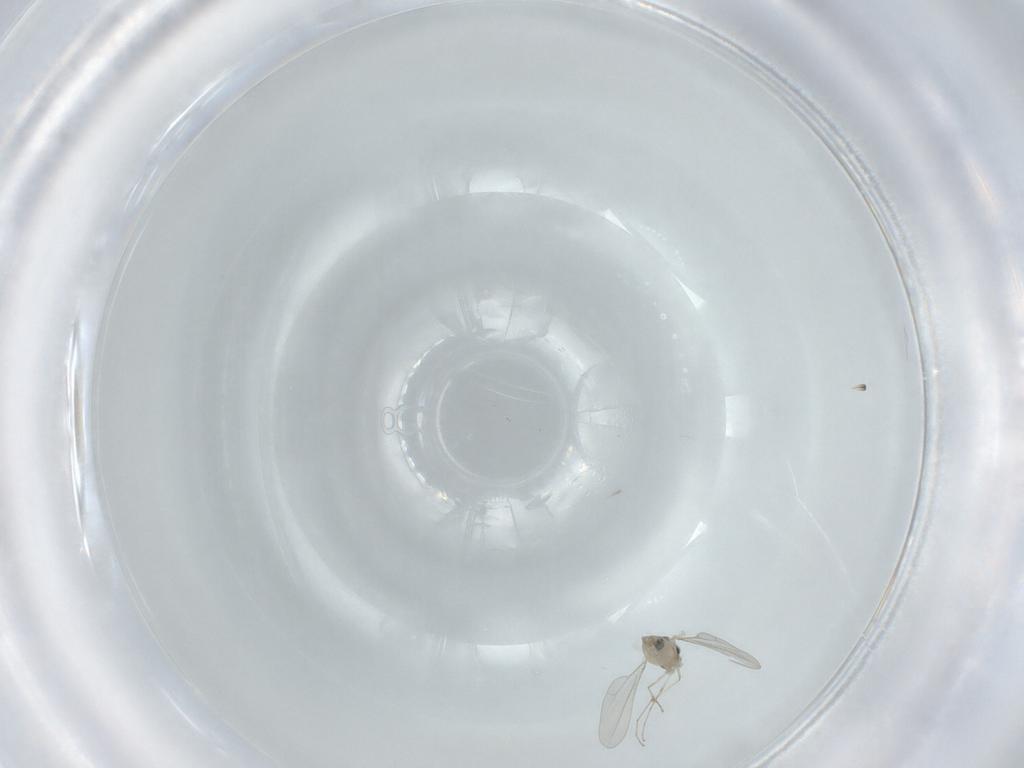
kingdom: Animalia
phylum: Arthropoda
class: Insecta
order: Diptera
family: Cecidomyiidae
